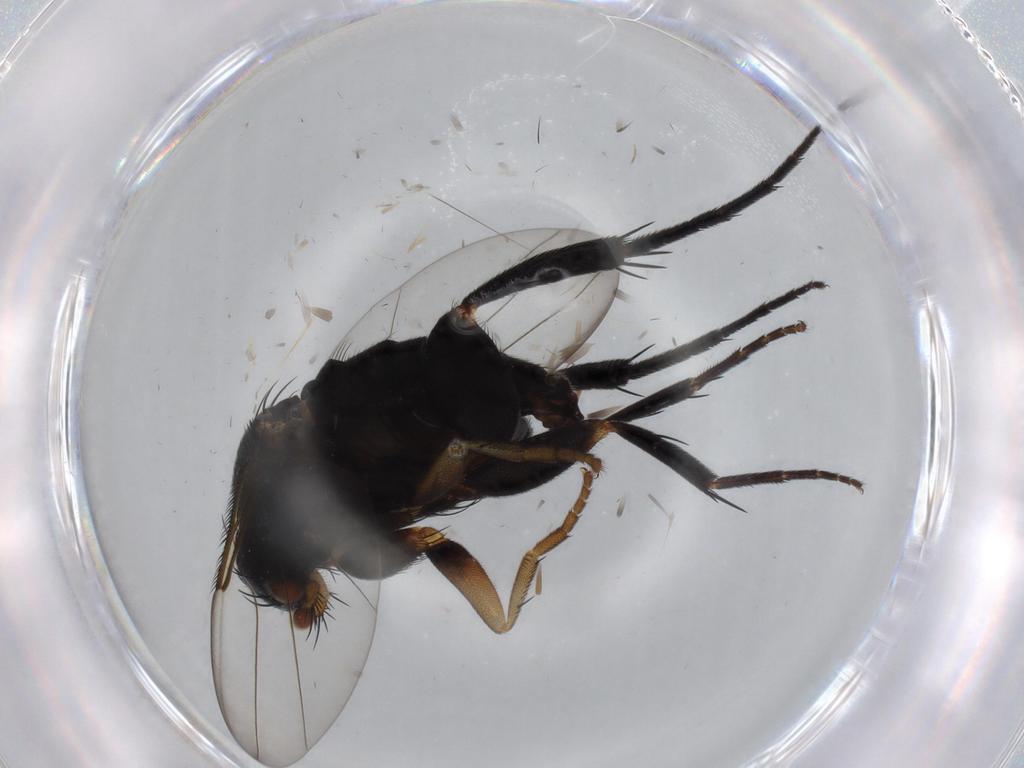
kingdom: Animalia
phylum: Arthropoda
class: Insecta
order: Diptera
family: Phoridae
